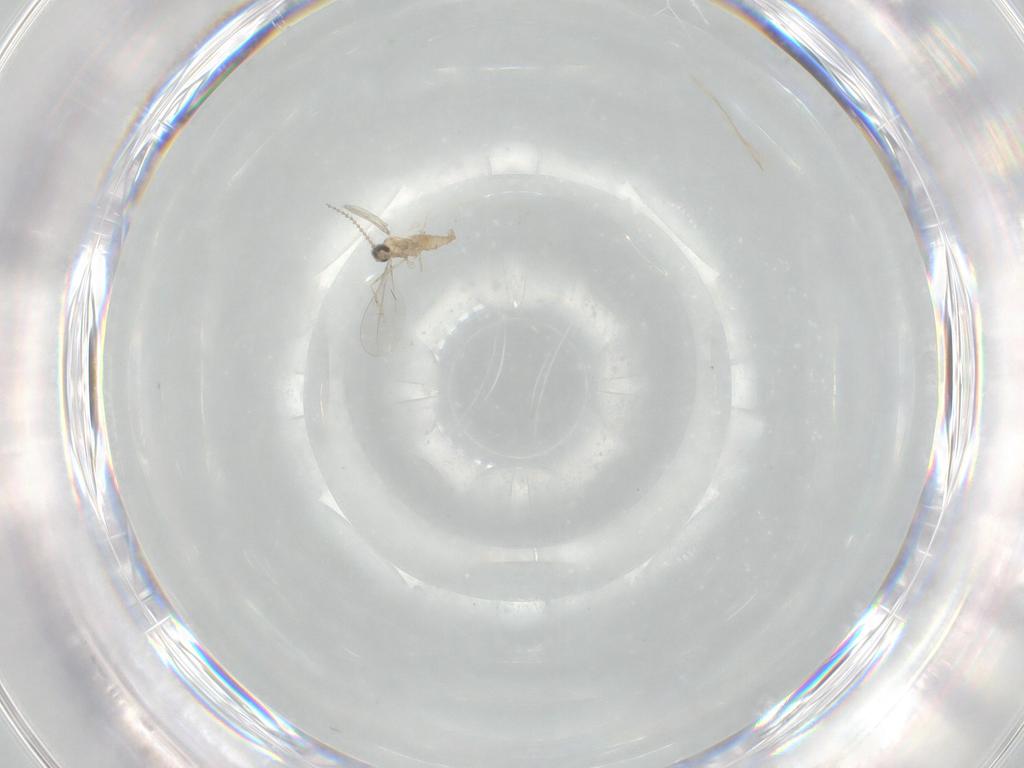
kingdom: Animalia
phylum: Arthropoda
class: Insecta
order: Diptera
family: Cecidomyiidae
